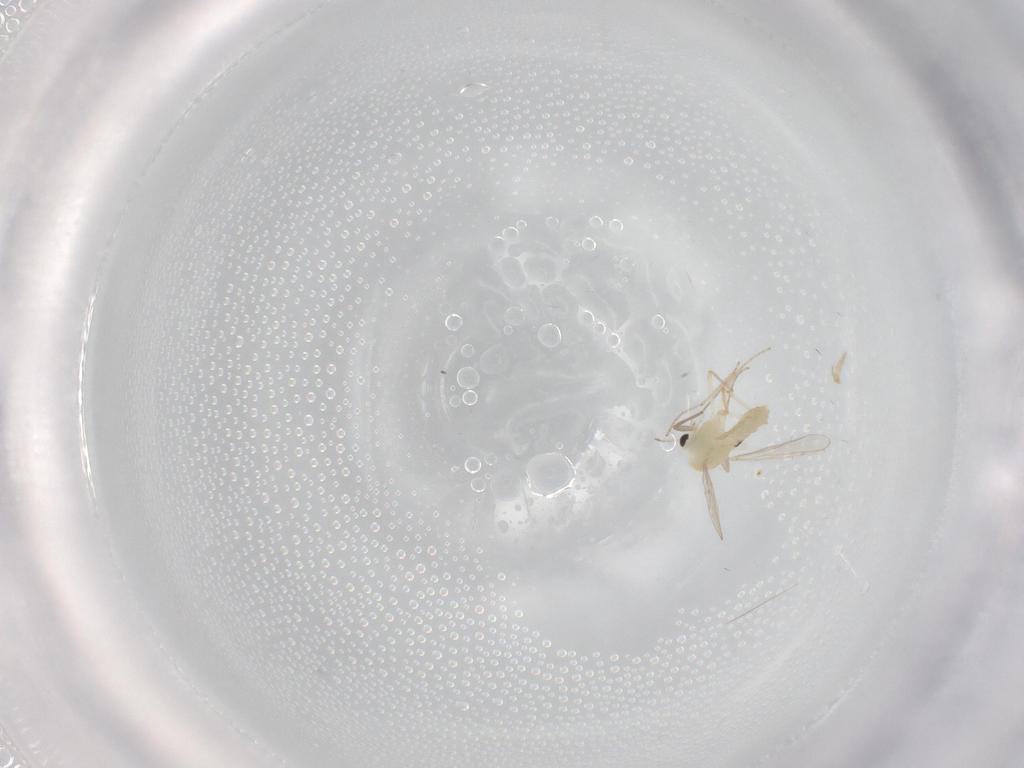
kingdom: Animalia
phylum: Arthropoda
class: Insecta
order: Diptera
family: Chironomidae
